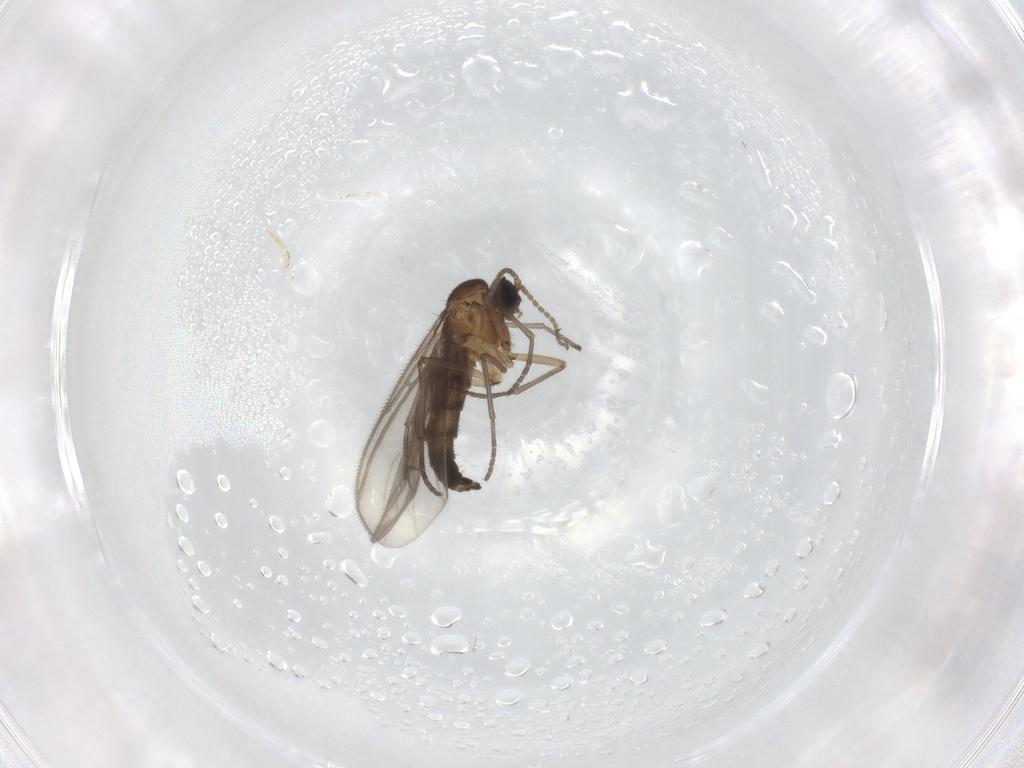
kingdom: Animalia
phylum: Arthropoda
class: Insecta
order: Diptera
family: Sciaridae
